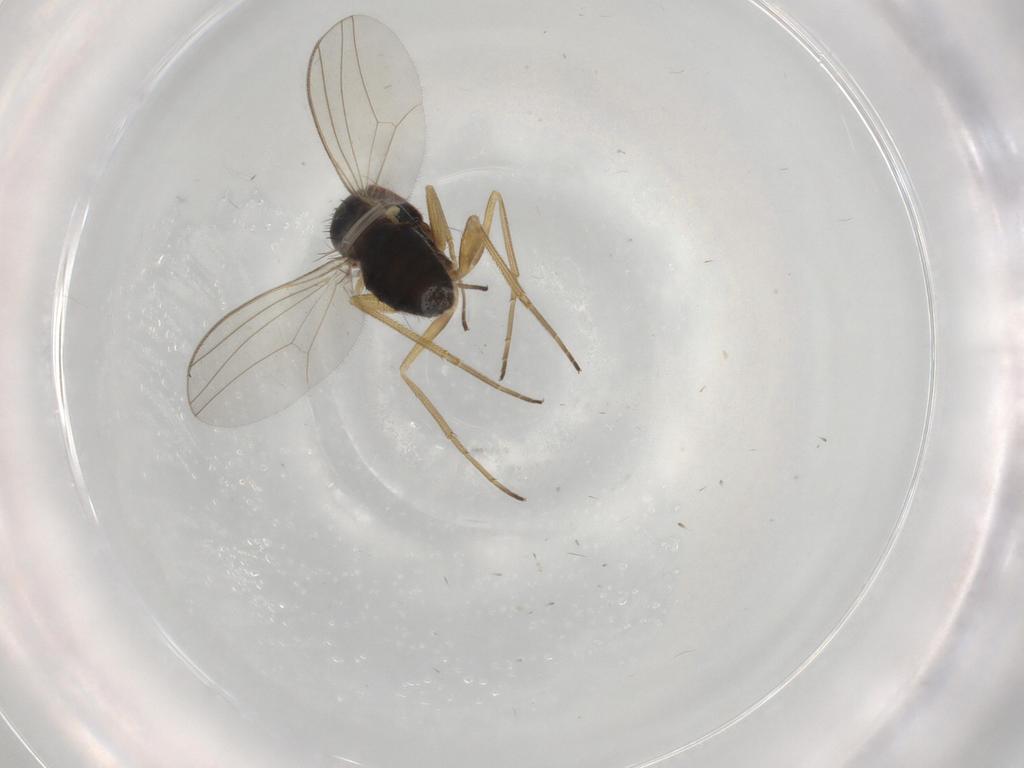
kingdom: Animalia
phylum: Arthropoda
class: Insecta
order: Diptera
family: Dolichopodidae
